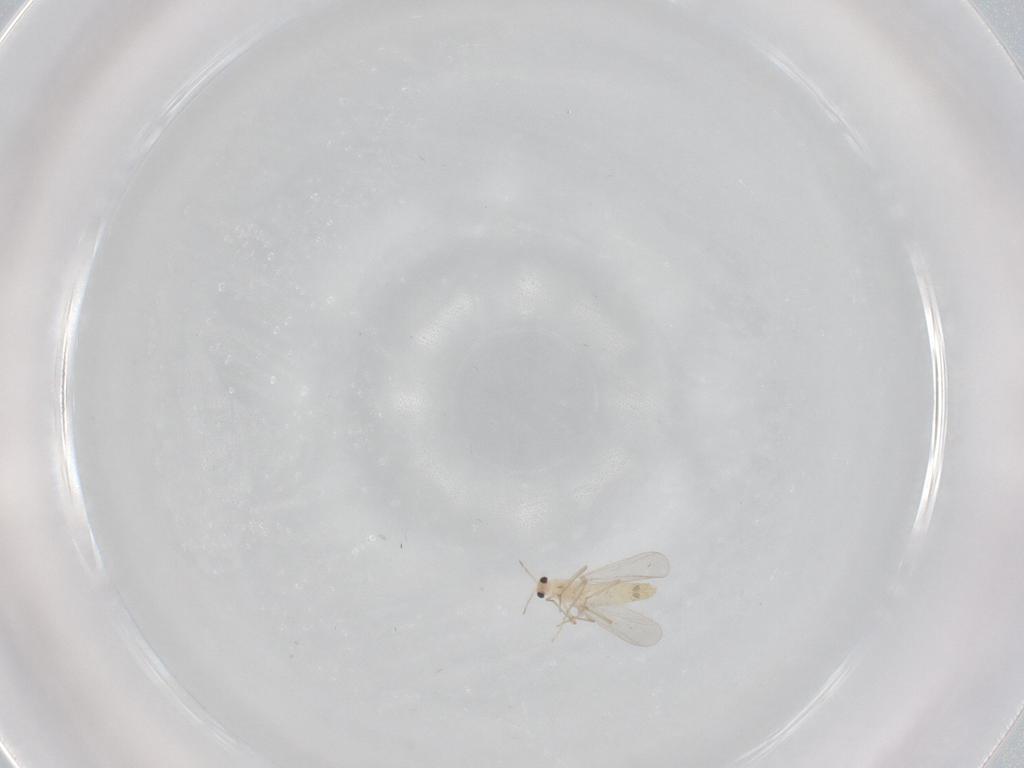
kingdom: Animalia
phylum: Arthropoda
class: Insecta
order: Diptera
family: Chironomidae
